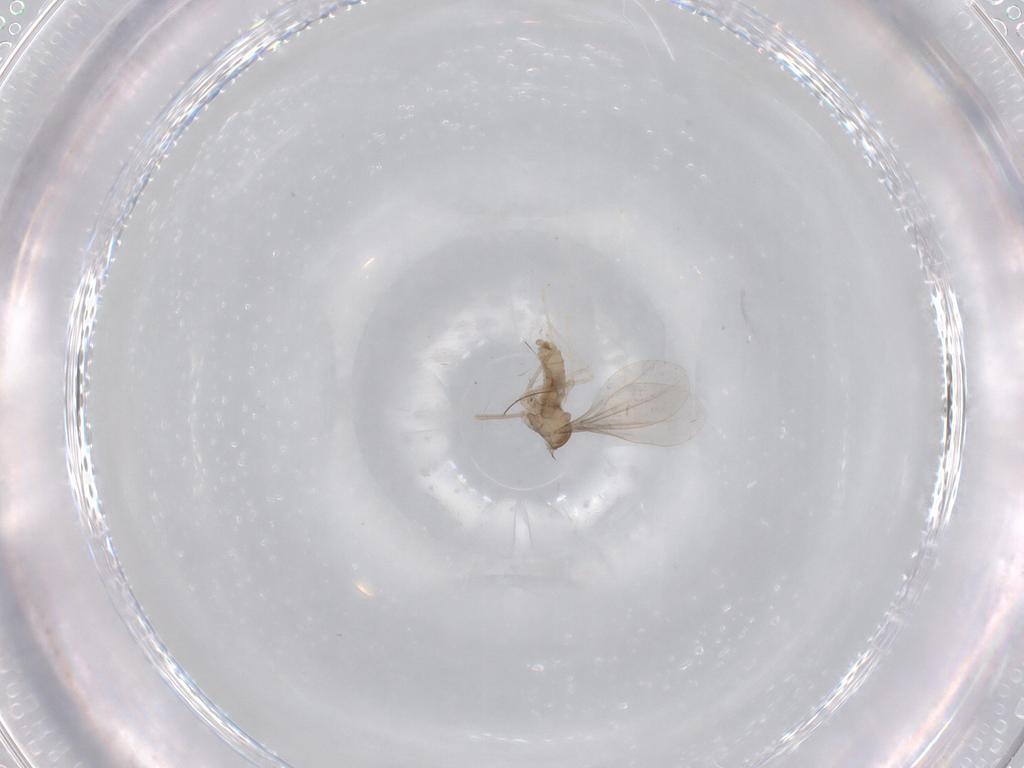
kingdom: Animalia
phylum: Arthropoda
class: Insecta
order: Diptera
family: Cecidomyiidae
